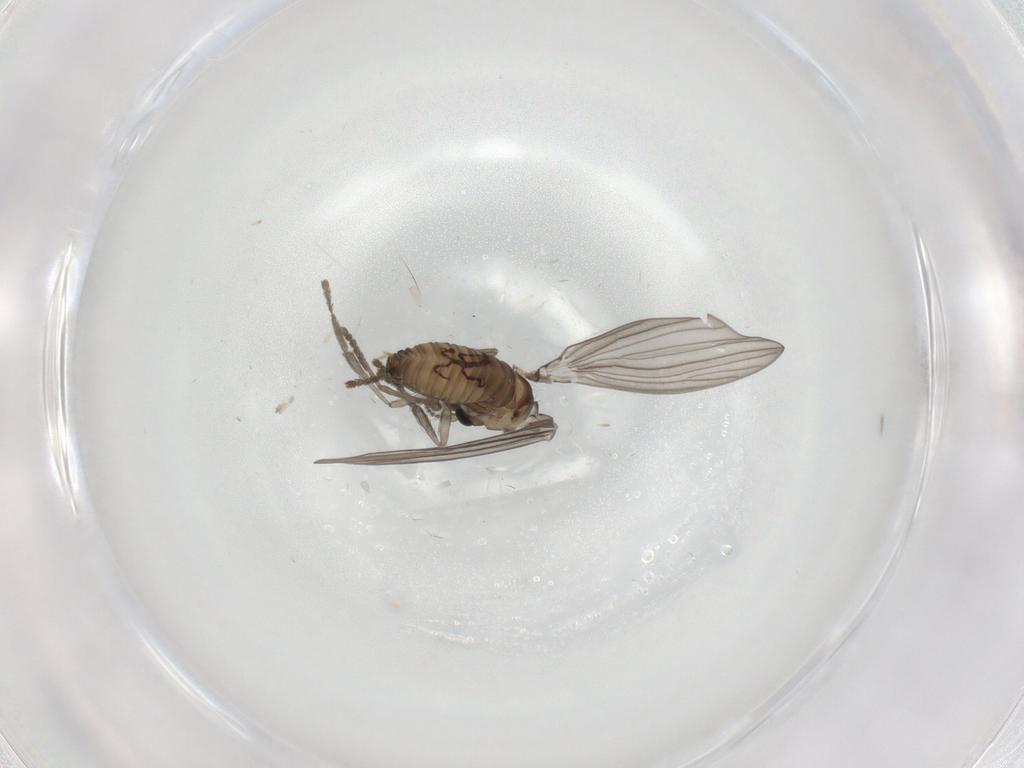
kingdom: Animalia
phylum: Arthropoda
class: Insecta
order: Diptera
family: Psychodidae
